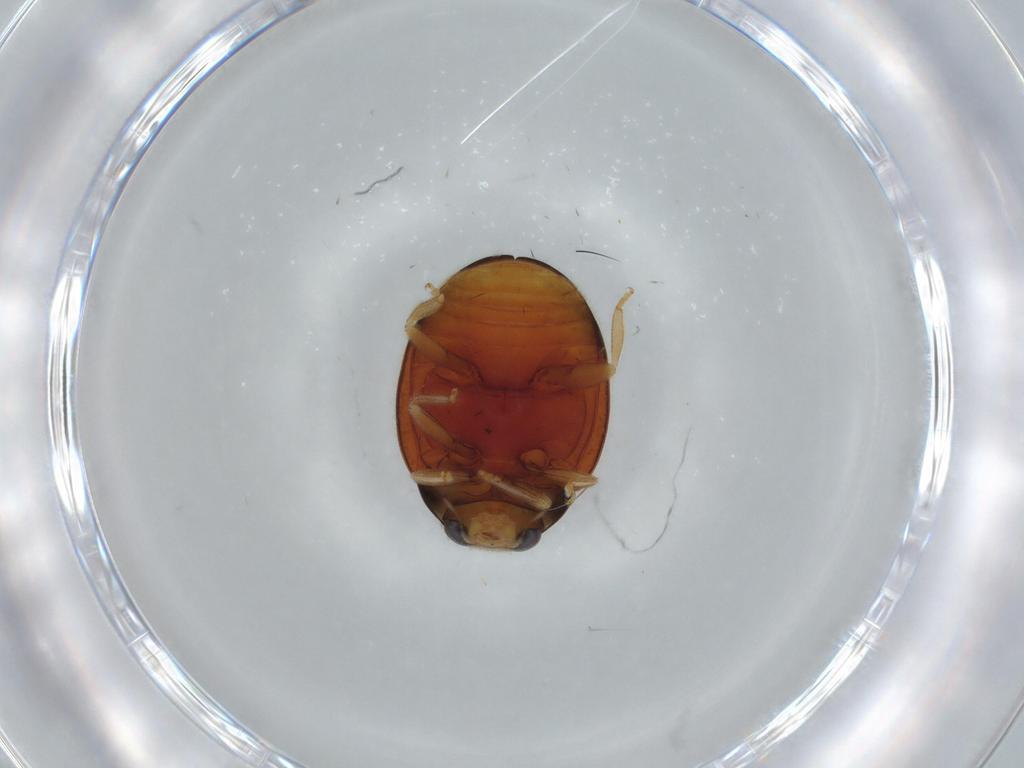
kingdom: Animalia
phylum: Arthropoda
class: Insecta
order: Coleoptera
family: Coccinellidae
